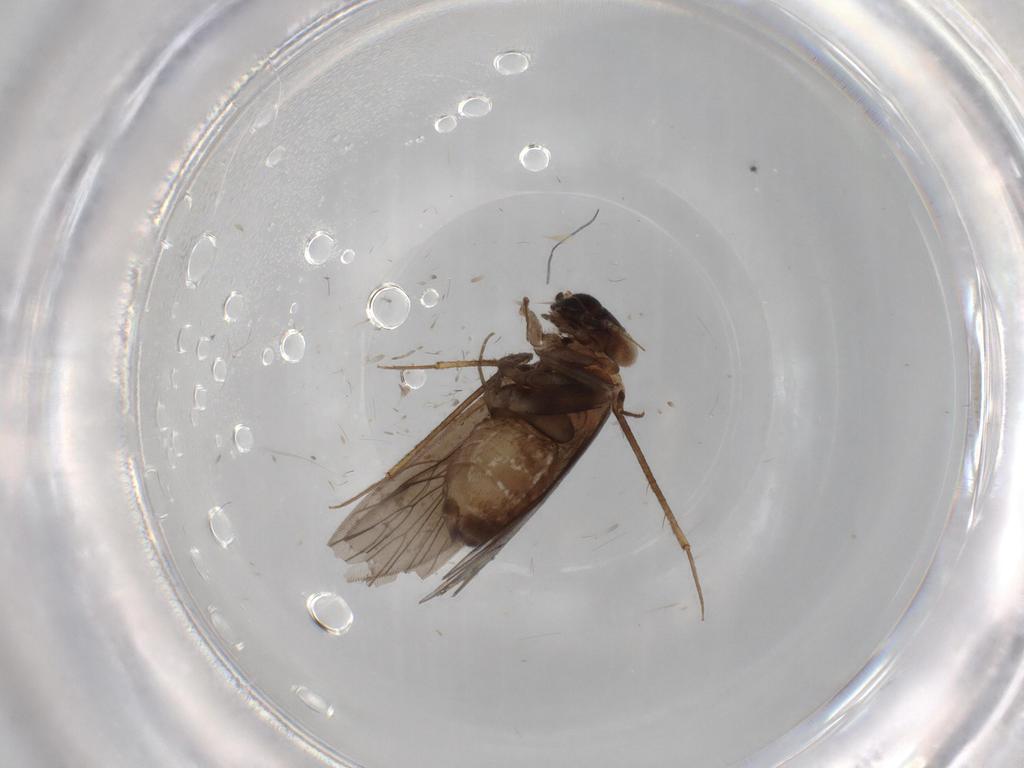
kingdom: Animalia
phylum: Arthropoda
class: Insecta
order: Psocodea
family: Lepidopsocidae
